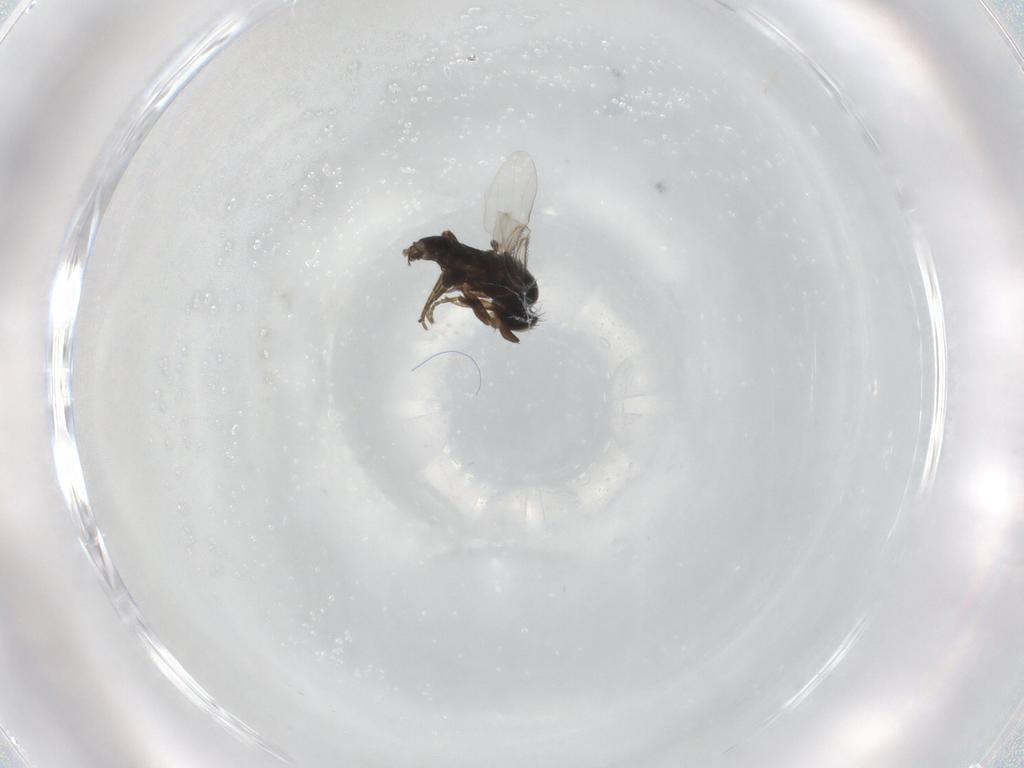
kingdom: Animalia
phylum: Arthropoda
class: Insecta
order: Diptera
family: Phoridae
